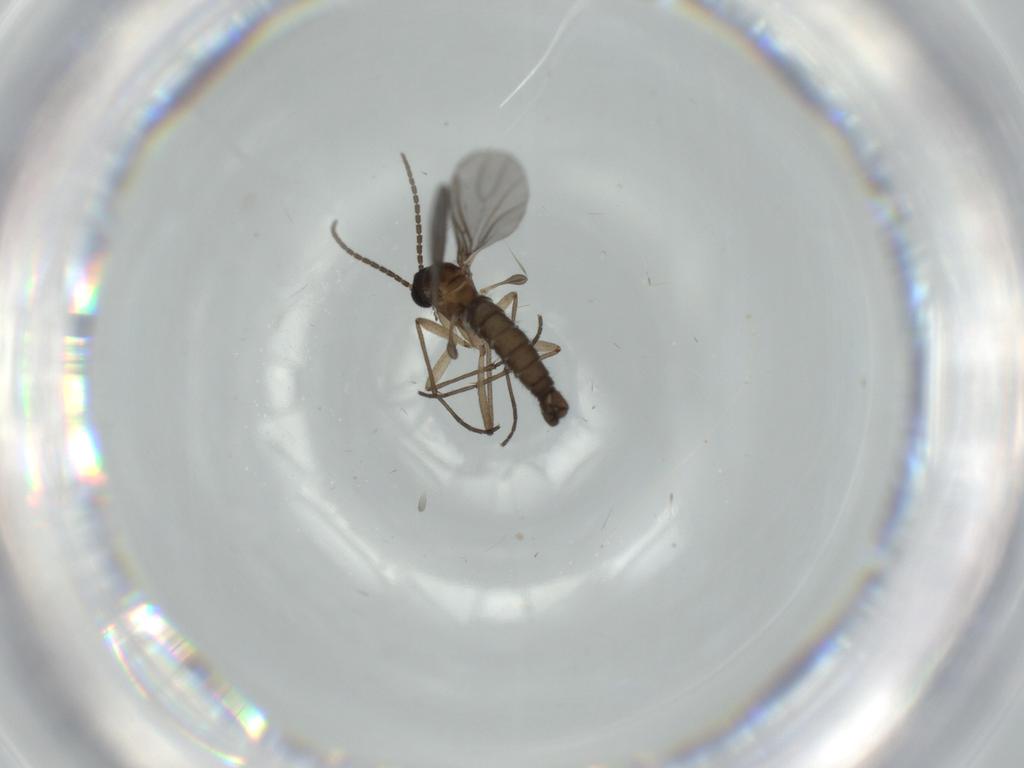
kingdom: Animalia
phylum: Arthropoda
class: Insecta
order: Diptera
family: Cecidomyiidae
